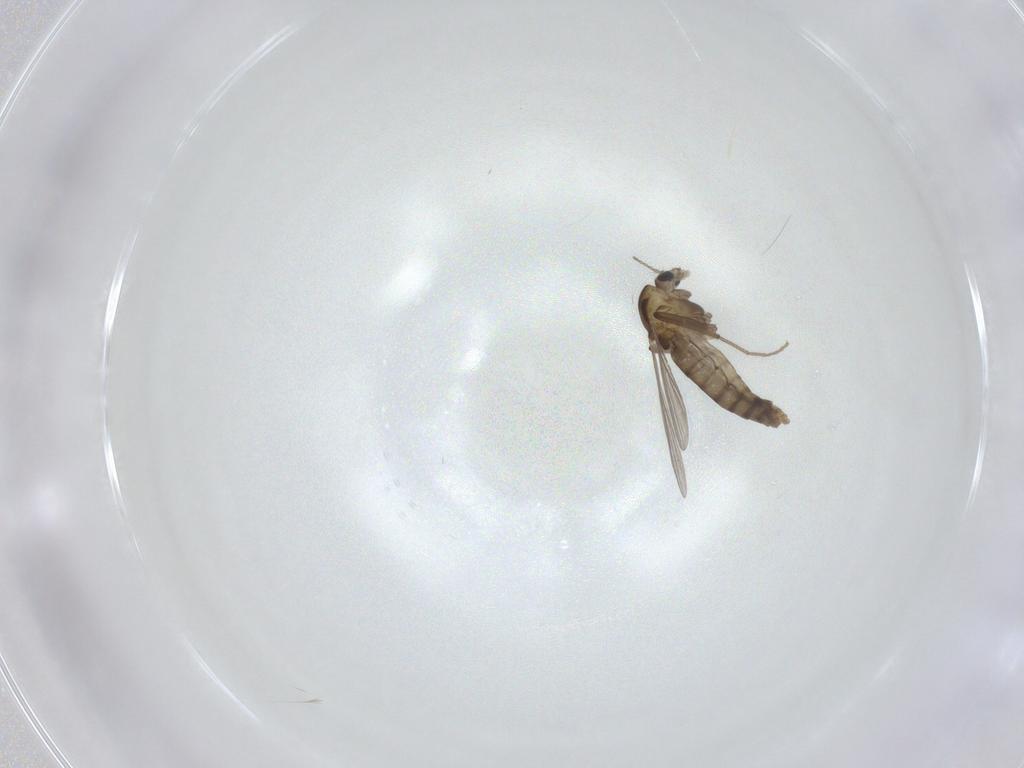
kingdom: Animalia
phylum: Arthropoda
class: Insecta
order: Diptera
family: Chironomidae
